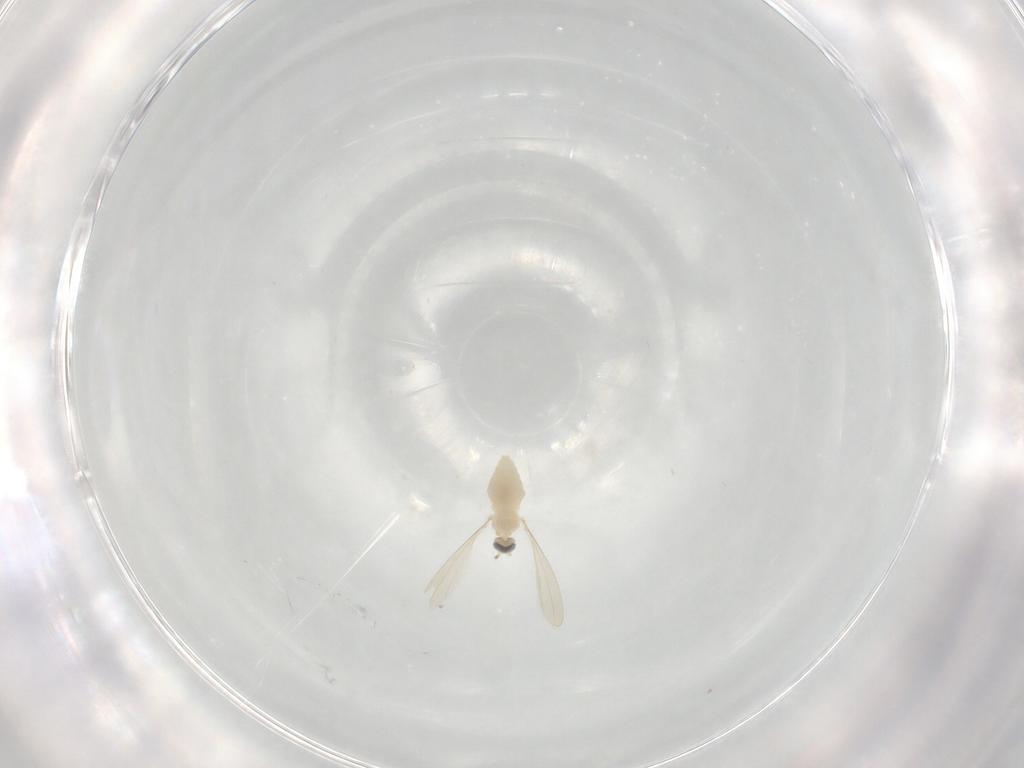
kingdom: Animalia
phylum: Arthropoda
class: Insecta
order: Diptera
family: Cecidomyiidae
